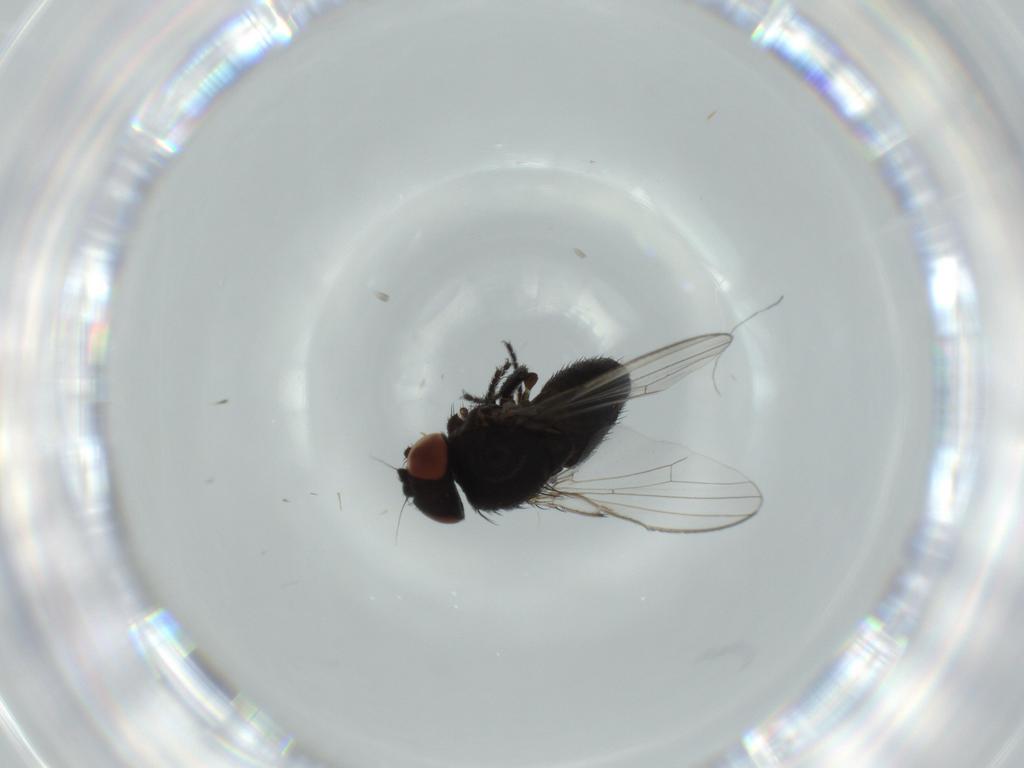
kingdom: Animalia
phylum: Arthropoda
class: Insecta
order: Diptera
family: Milichiidae
